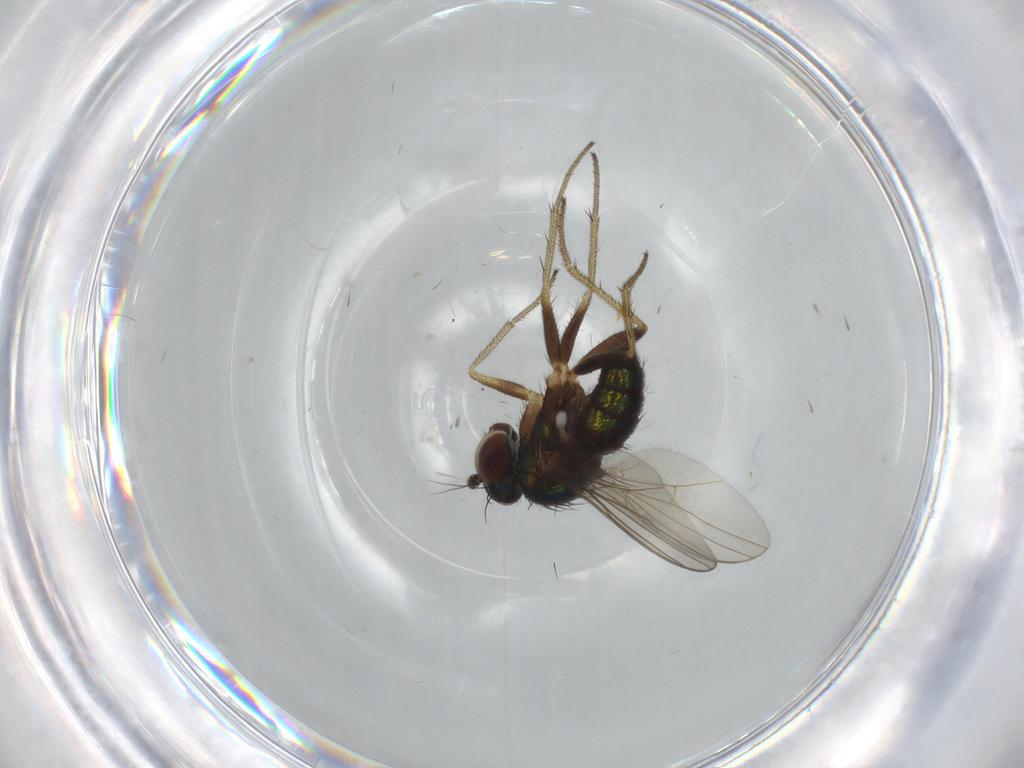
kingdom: Animalia
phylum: Arthropoda
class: Insecta
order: Diptera
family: Dolichopodidae
